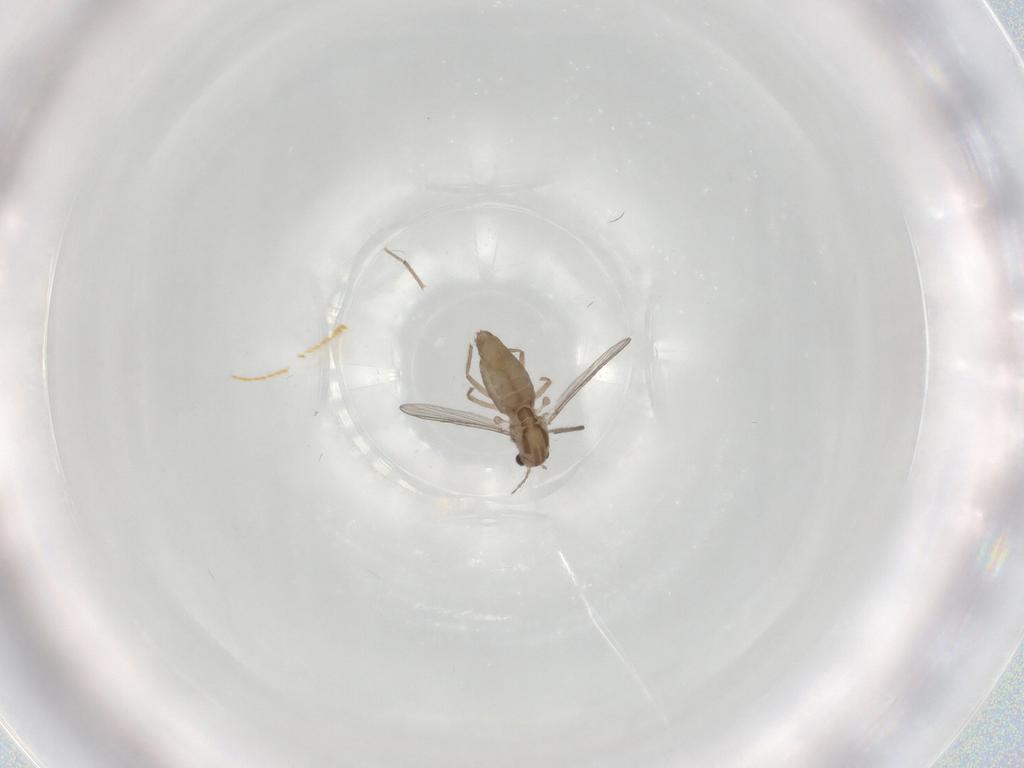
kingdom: Animalia
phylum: Arthropoda
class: Insecta
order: Diptera
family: Chironomidae
